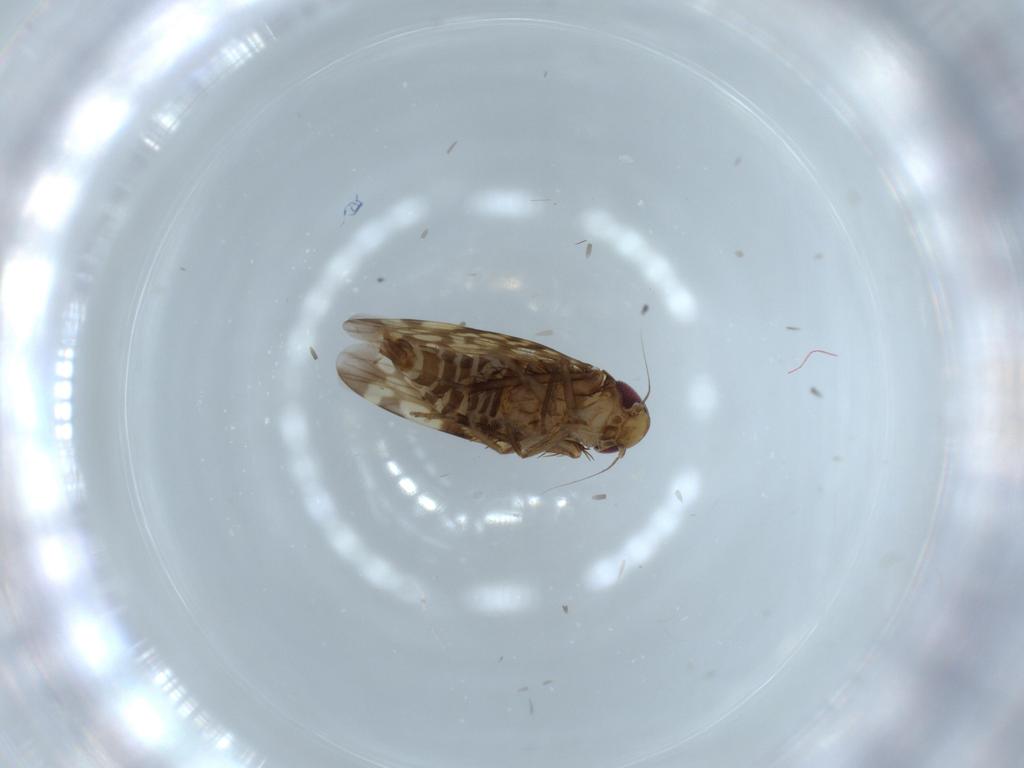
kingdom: Animalia
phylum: Arthropoda
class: Insecta
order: Hemiptera
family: Cicadellidae
